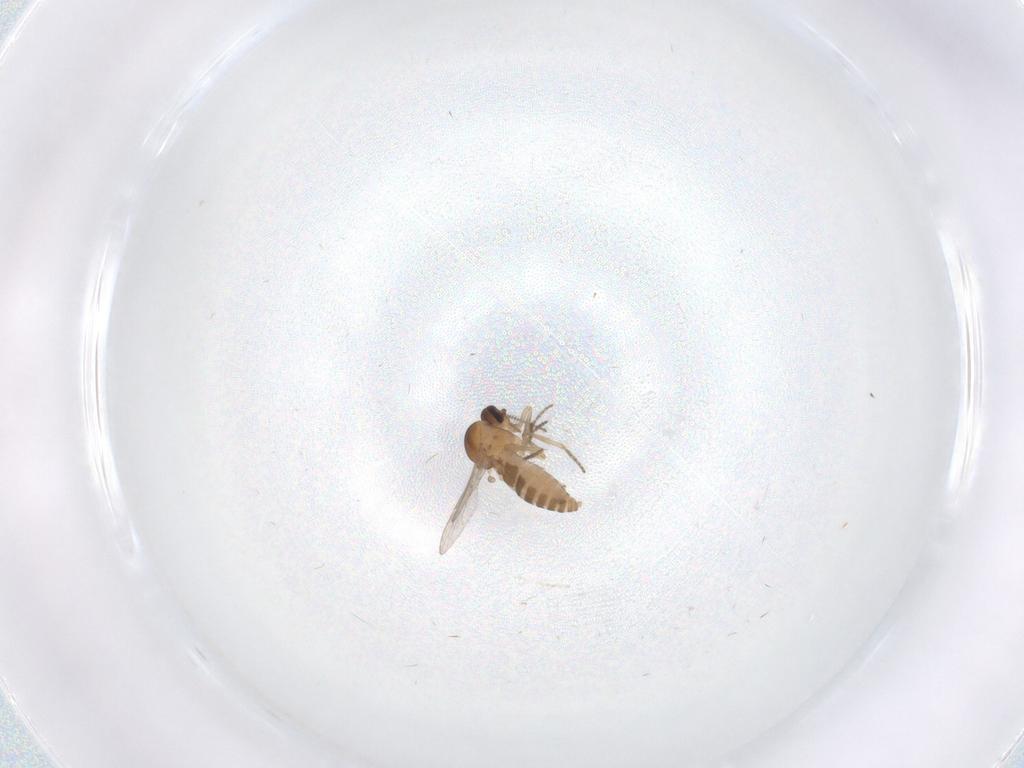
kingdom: Animalia
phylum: Arthropoda
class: Insecta
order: Diptera
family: Ceratopogonidae
